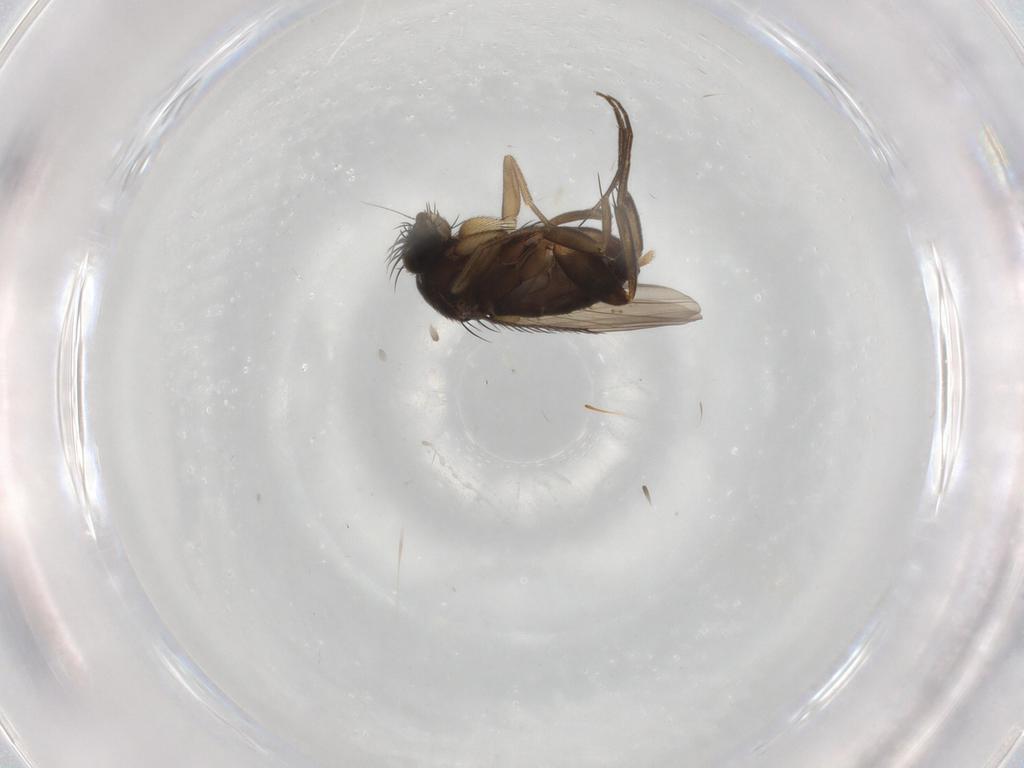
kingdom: Animalia
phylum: Arthropoda
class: Insecta
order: Diptera
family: Phoridae
